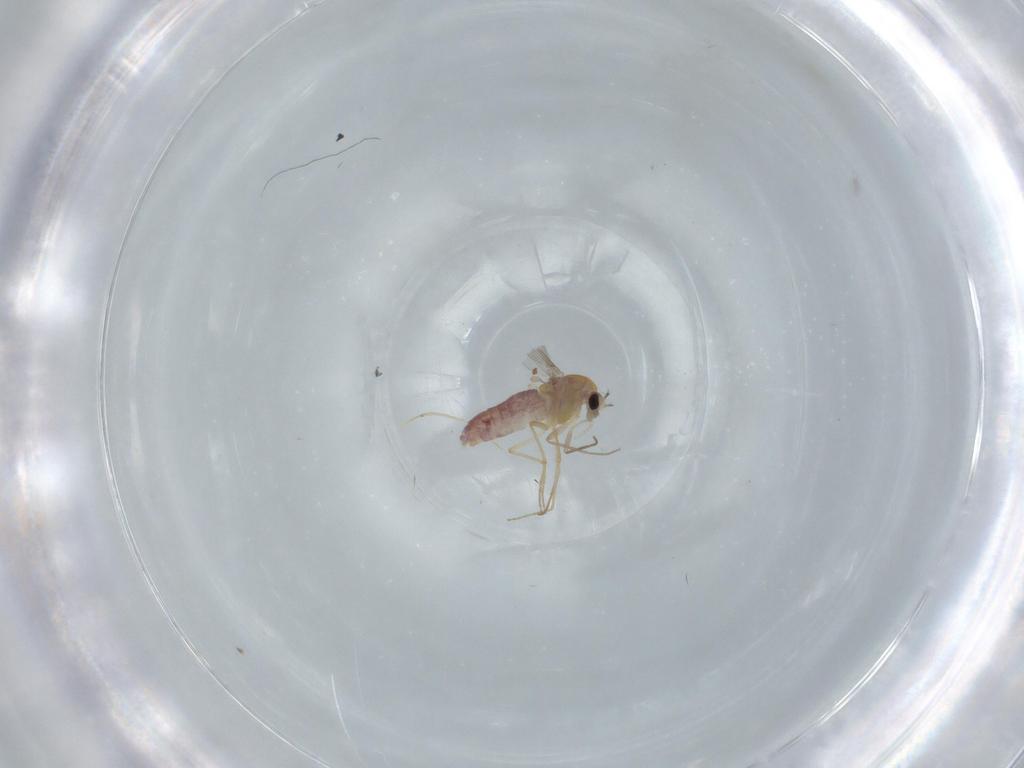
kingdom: Animalia
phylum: Arthropoda
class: Insecta
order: Diptera
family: Chironomidae
